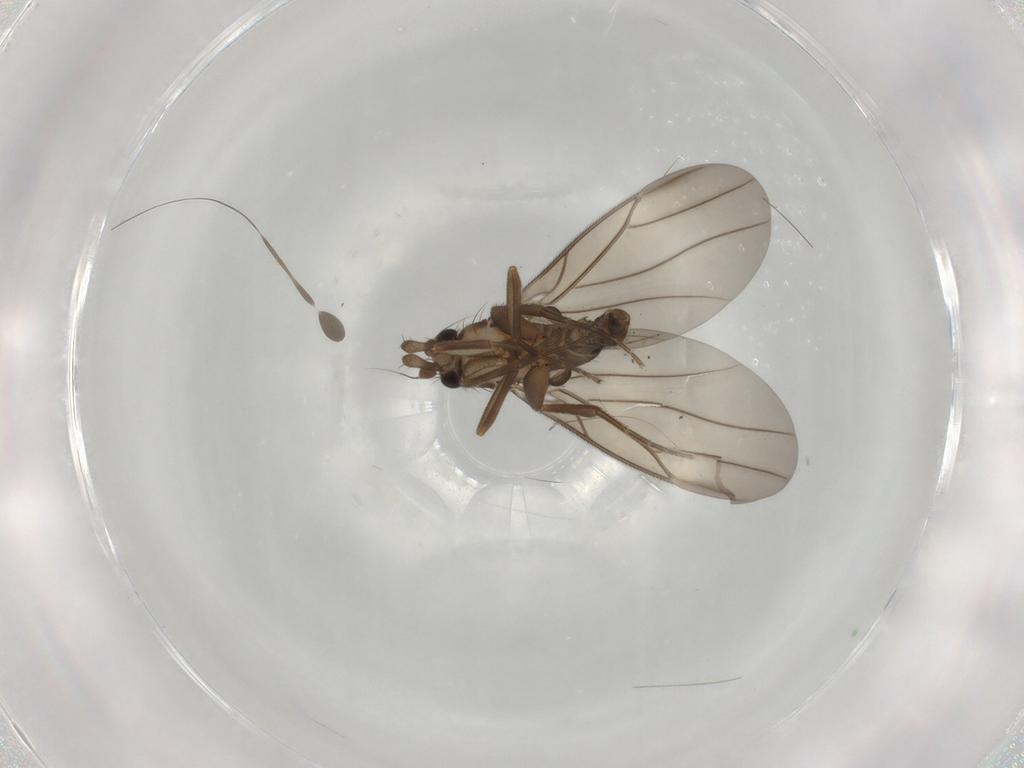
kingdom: Animalia
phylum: Arthropoda
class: Insecta
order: Diptera
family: Phoridae
